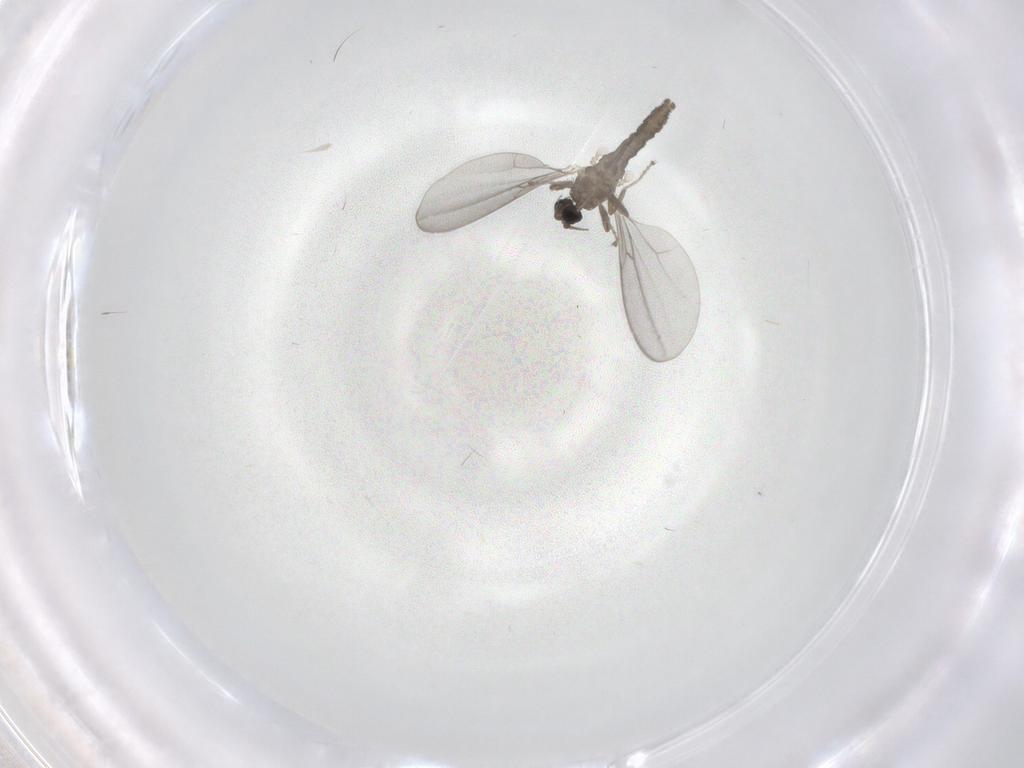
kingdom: Animalia
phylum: Arthropoda
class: Insecta
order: Diptera
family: Cecidomyiidae
